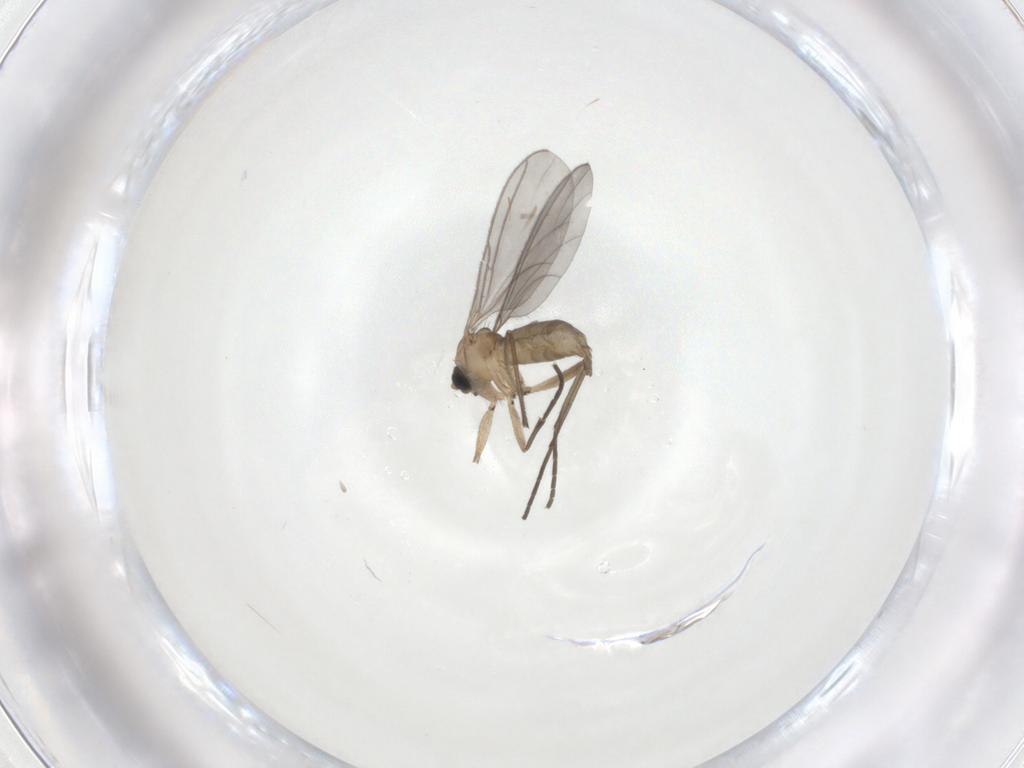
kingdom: Animalia
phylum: Arthropoda
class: Insecta
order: Diptera
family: Sciaridae
